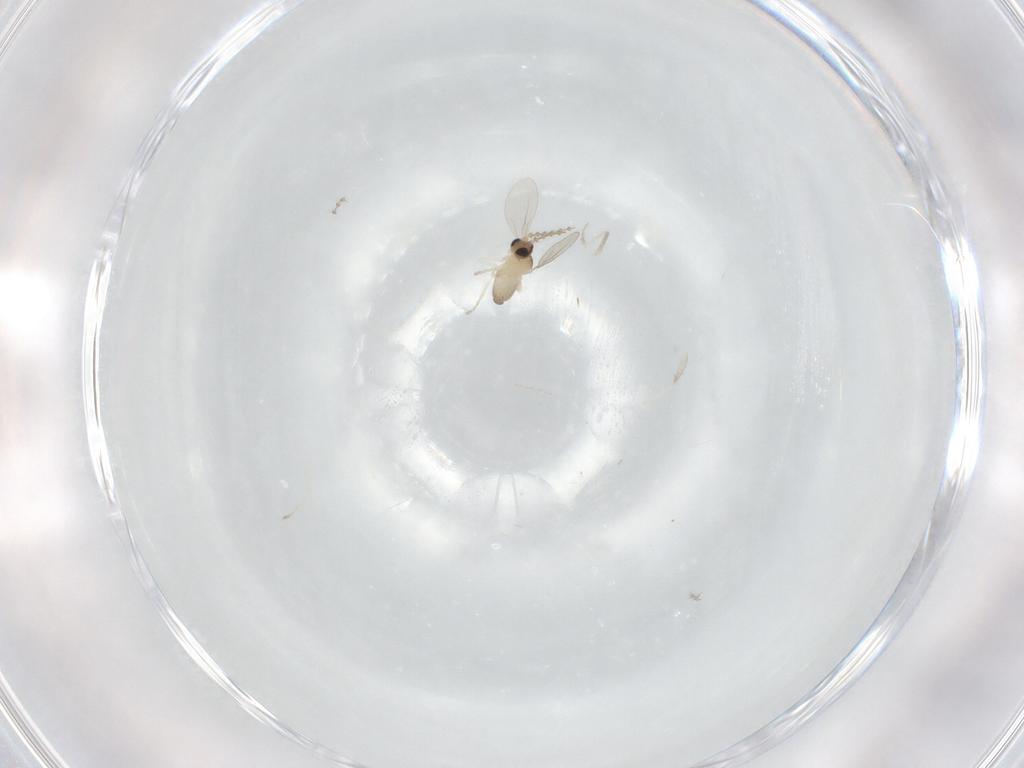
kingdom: Animalia
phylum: Arthropoda
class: Insecta
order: Diptera
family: Cecidomyiidae
